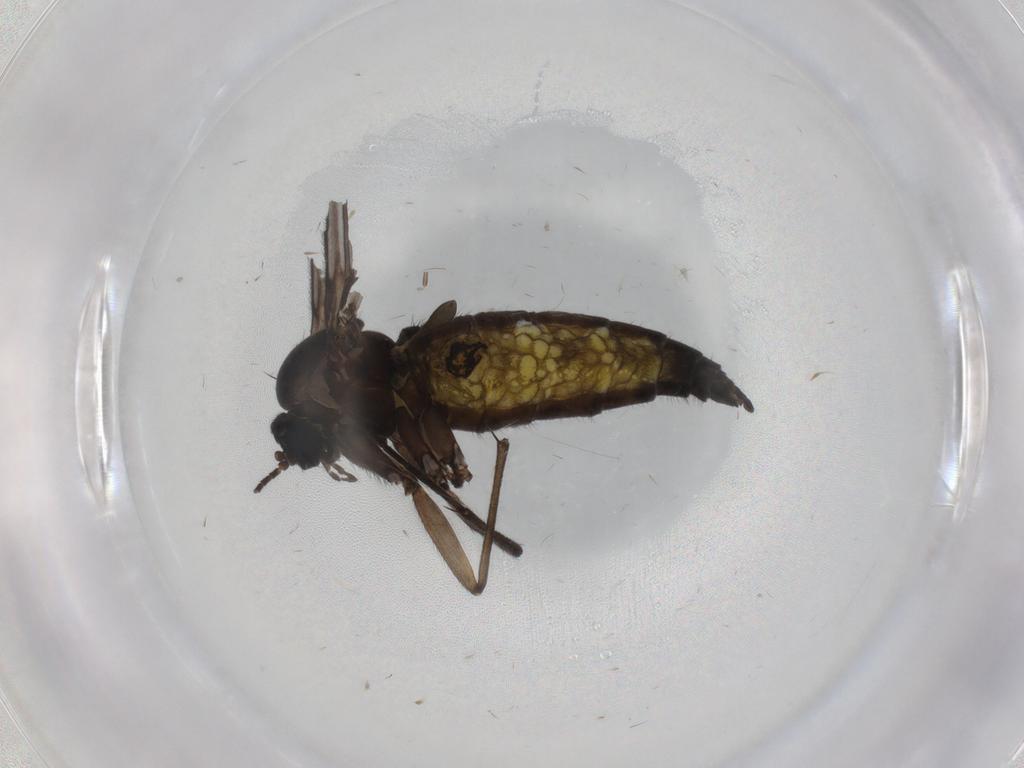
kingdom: Animalia
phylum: Arthropoda
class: Insecta
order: Diptera
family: Sciaridae
